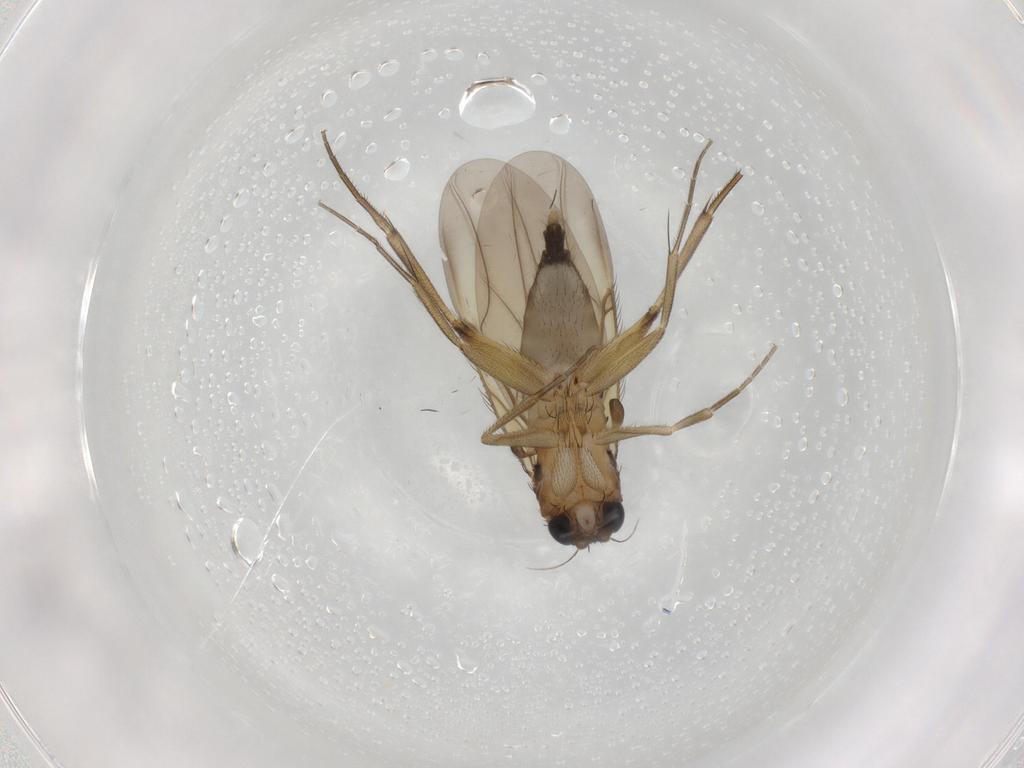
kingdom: Animalia
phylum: Arthropoda
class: Insecta
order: Diptera
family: Phoridae
